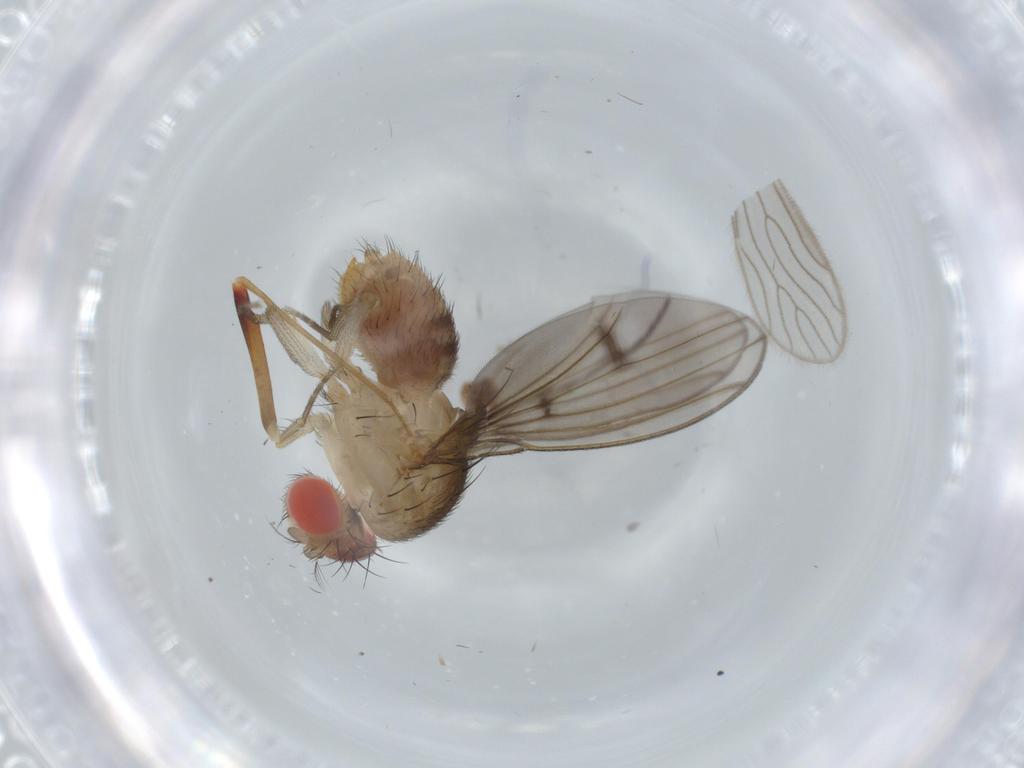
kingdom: Animalia
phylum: Arthropoda
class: Insecta
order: Diptera
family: Drosophilidae
